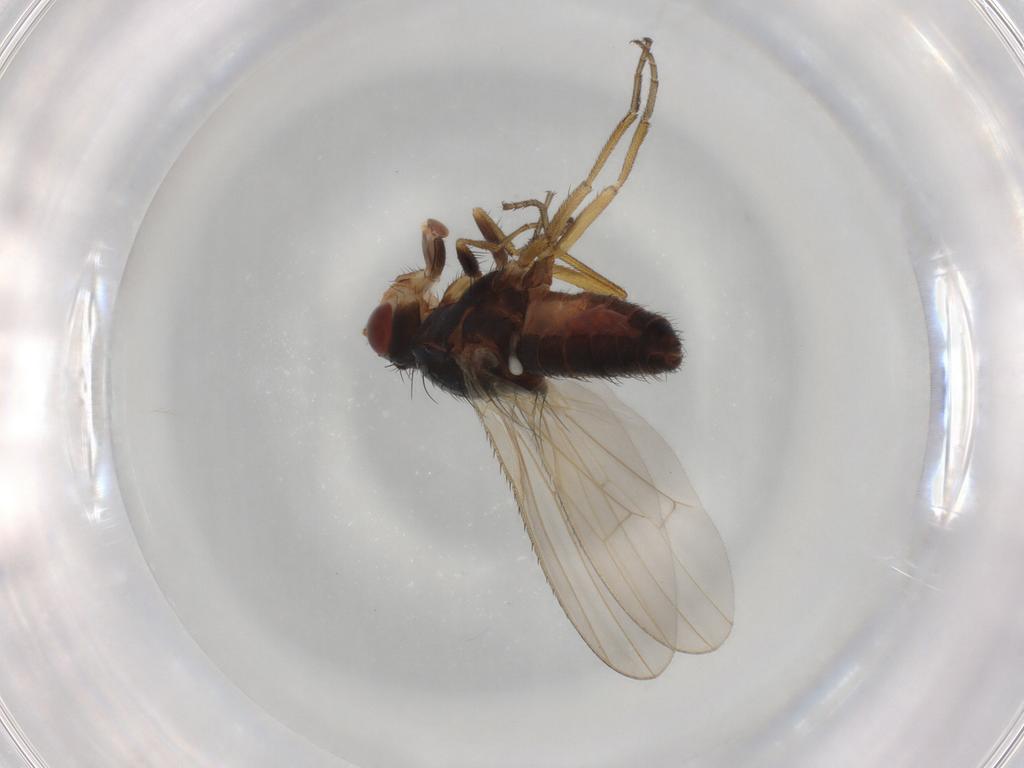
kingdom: Animalia
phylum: Arthropoda
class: Insecta
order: Diptera
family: Heleomyzidae
